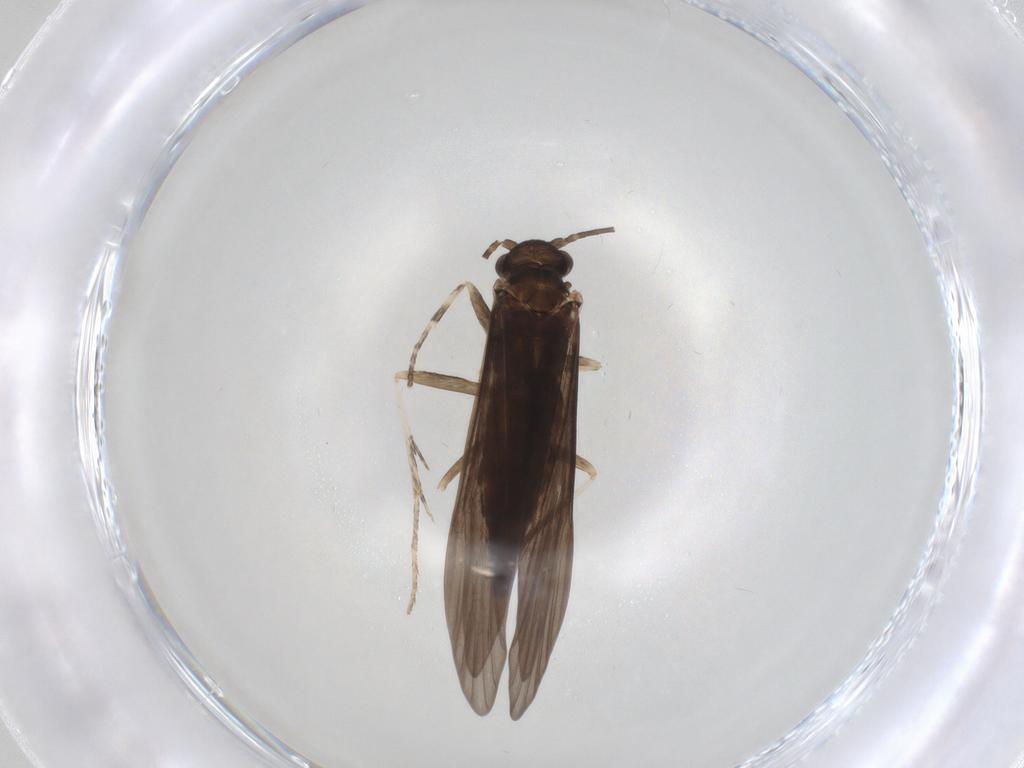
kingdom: Animalia
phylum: Arthropoda
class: Insecta
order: Trichoptera
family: Xiphocentronidae
